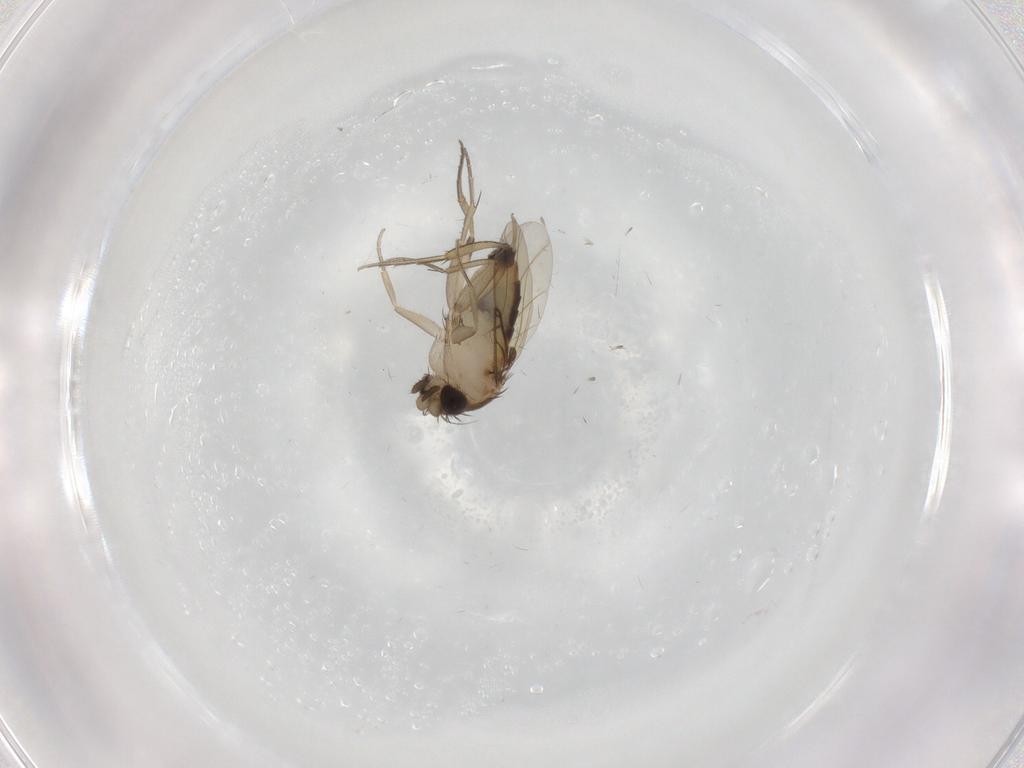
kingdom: Animalia
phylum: Arthropoda
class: Insecta
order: Diptera
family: Phoridae
